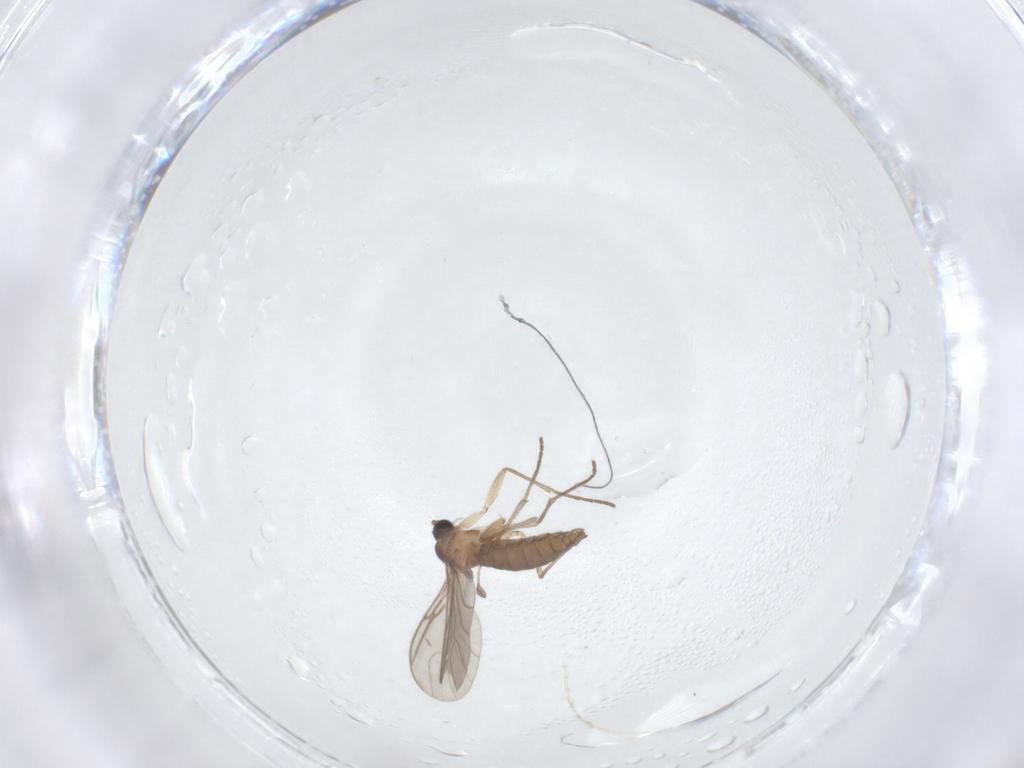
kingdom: Animalia
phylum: Arthropoda
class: Insecta
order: Diptera
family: Sciaridae
